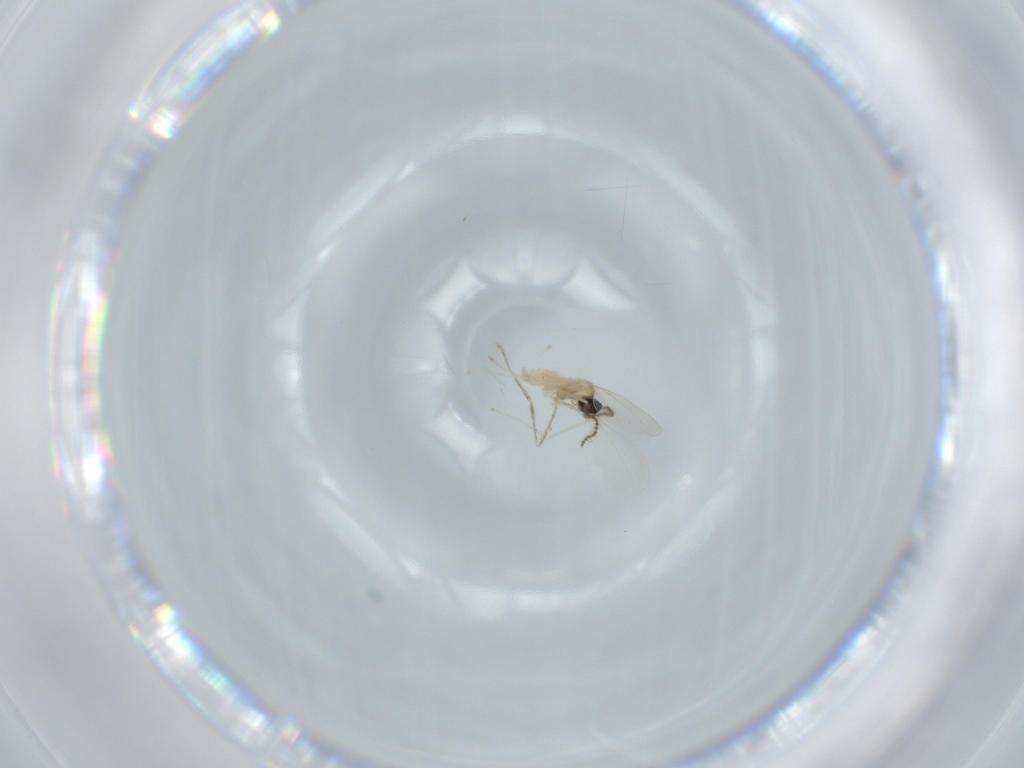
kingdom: Animalia
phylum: Arthropoda
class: Insecta
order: Diptera
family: Cecidomyiidae
